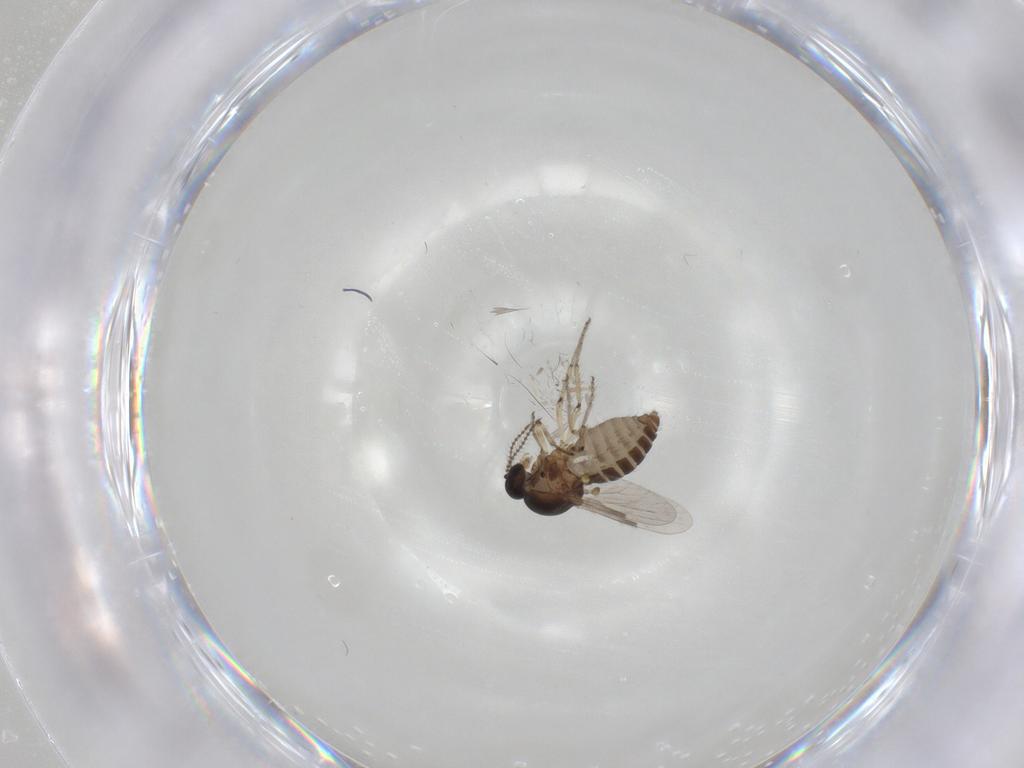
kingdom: Animalia
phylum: Arthropoda
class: Insecta
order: Diptera
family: Ceratopogonidae
